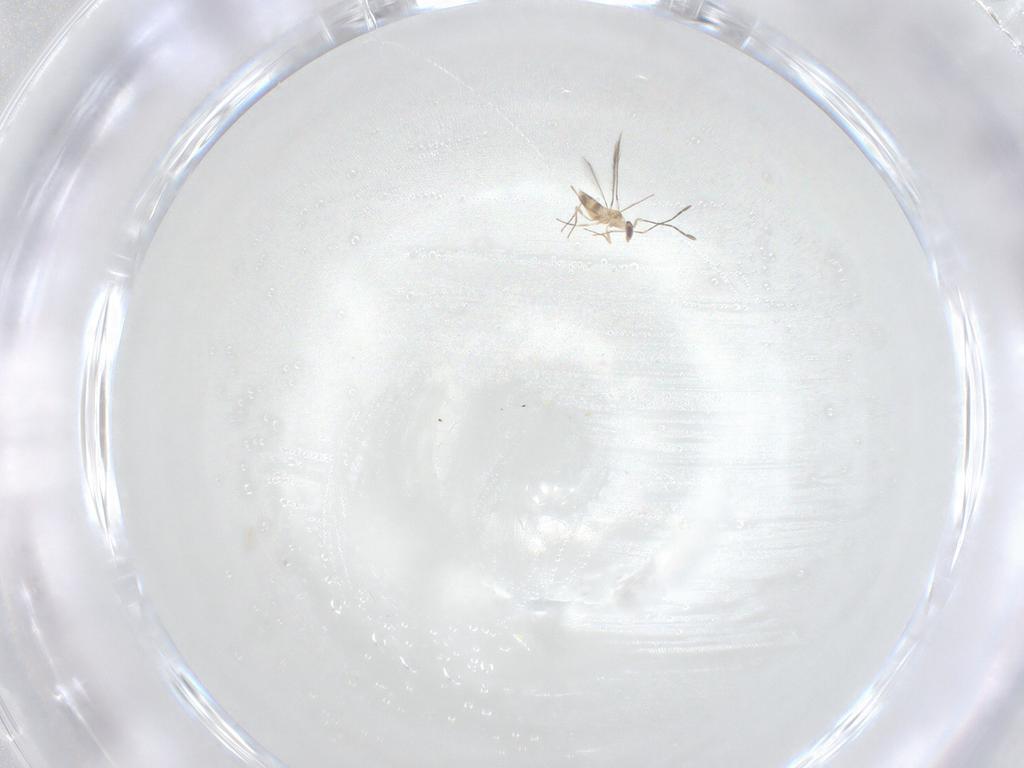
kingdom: Animalia
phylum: Arthropoda
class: Insecta
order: Hymenoptera
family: Mymaridae
